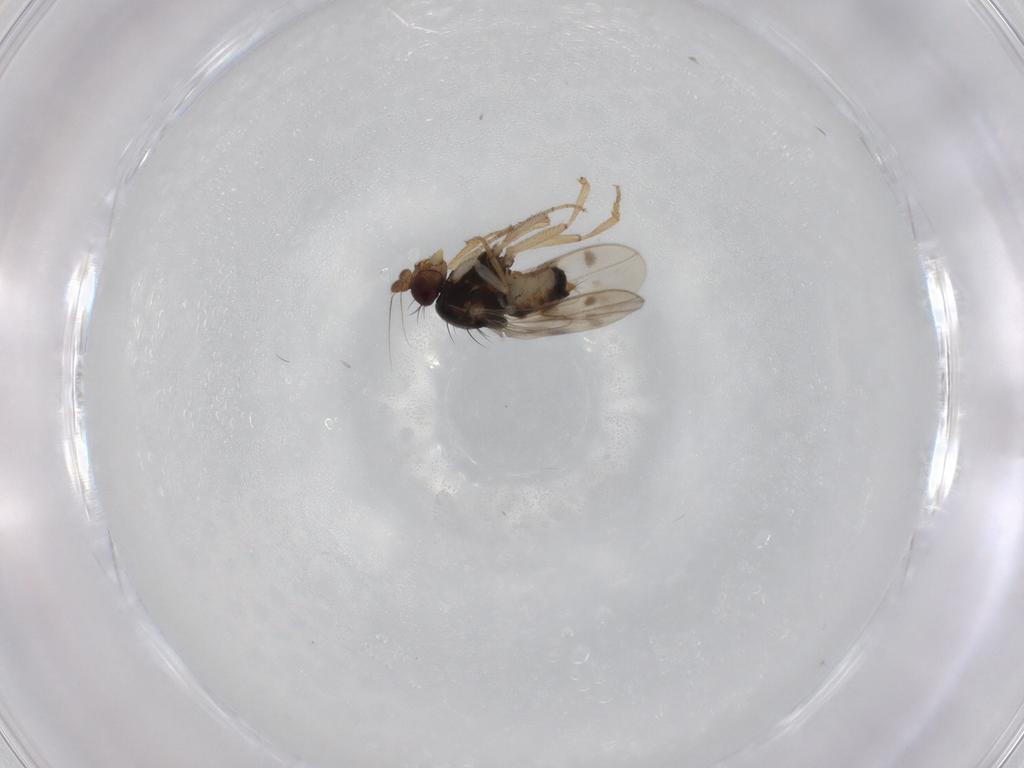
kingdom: Animalia
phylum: Arthropoda
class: Insecta
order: Diptera
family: Sphaeroceridae
